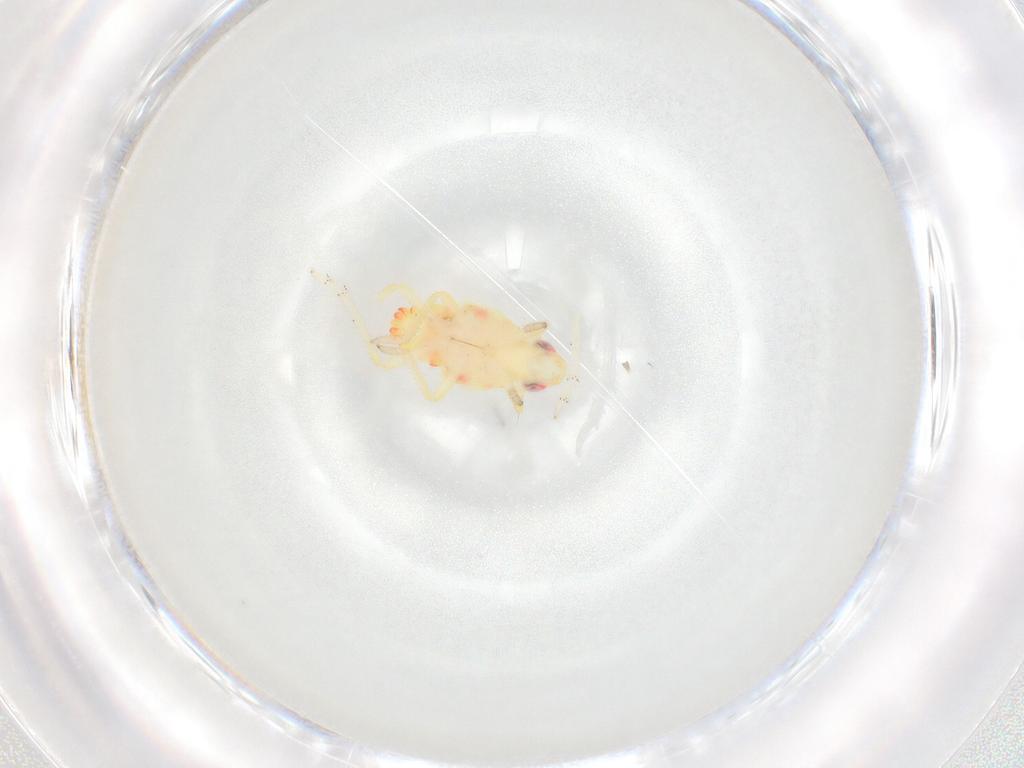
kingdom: Animalia
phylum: Arthropoda
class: Insecta
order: Hemiptera
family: Tropiduchidae
